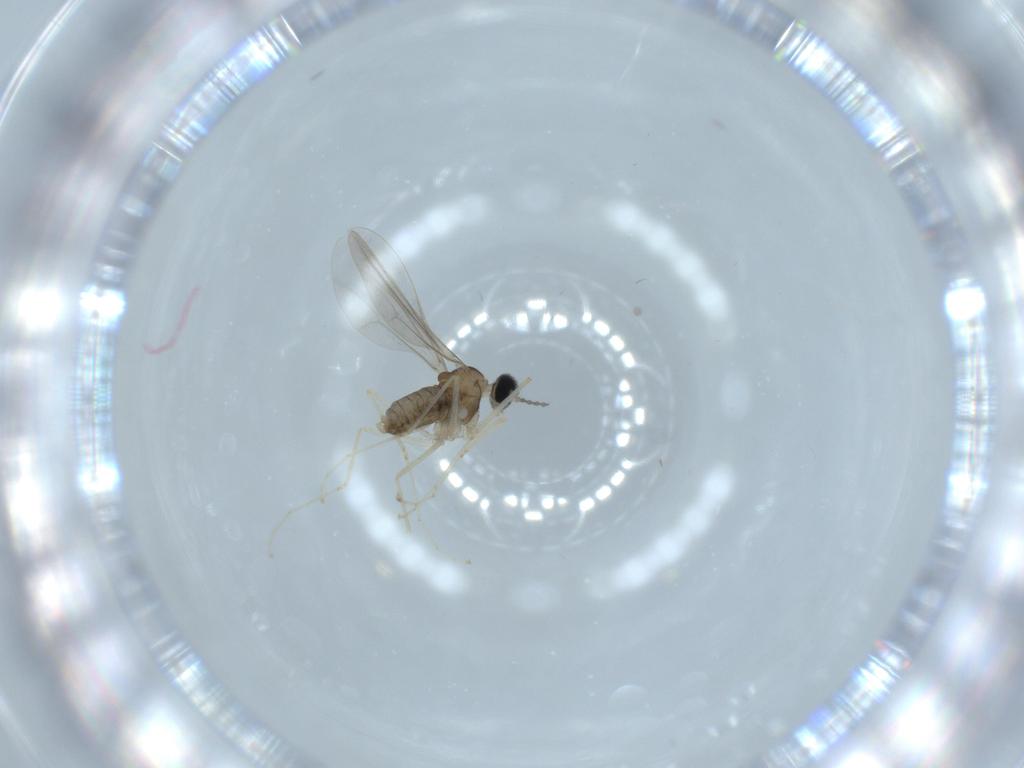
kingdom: Animalia
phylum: Arthropoda
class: Insecta
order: Diptera
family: Cecidomyiidae
